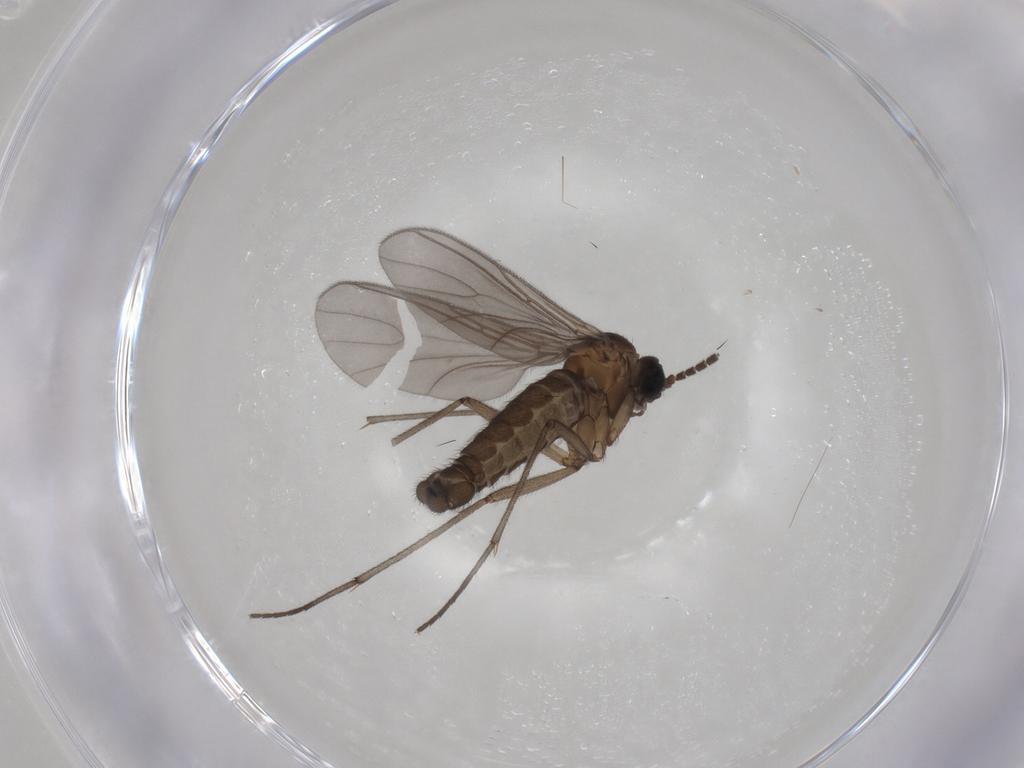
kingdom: Animalia
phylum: Arthropoda
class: Insecta
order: Diptera
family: Sciaridae
